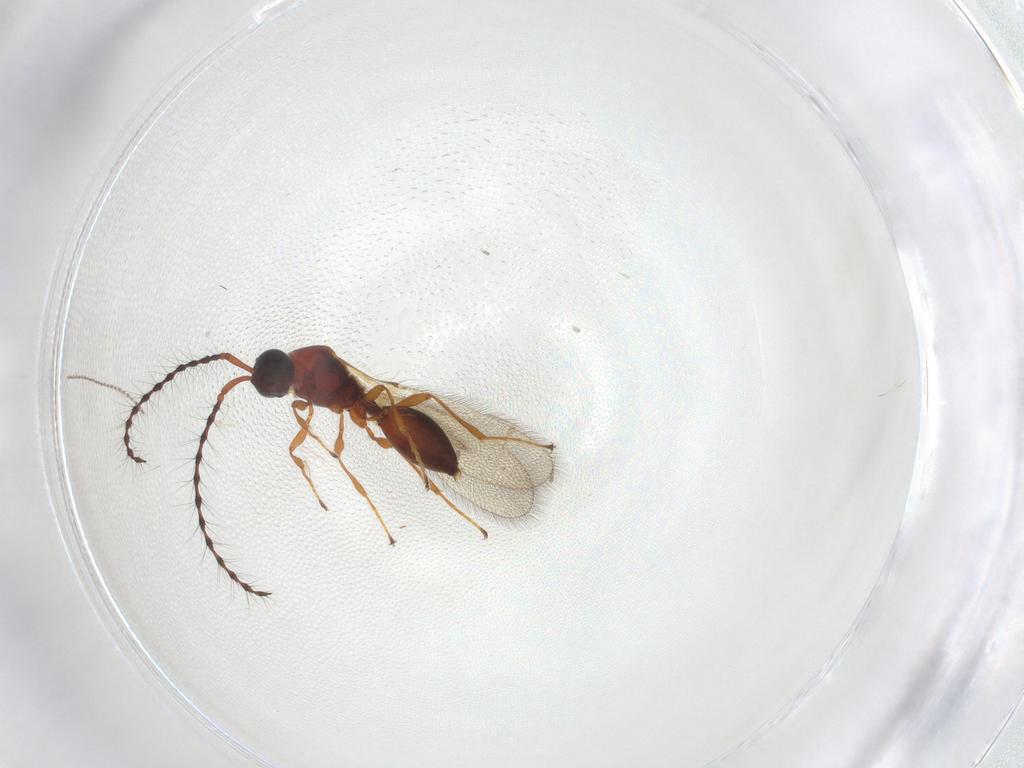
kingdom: Animalia
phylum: Arthropoda
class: Insecta
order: Hymenoptera
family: Diapriidae
